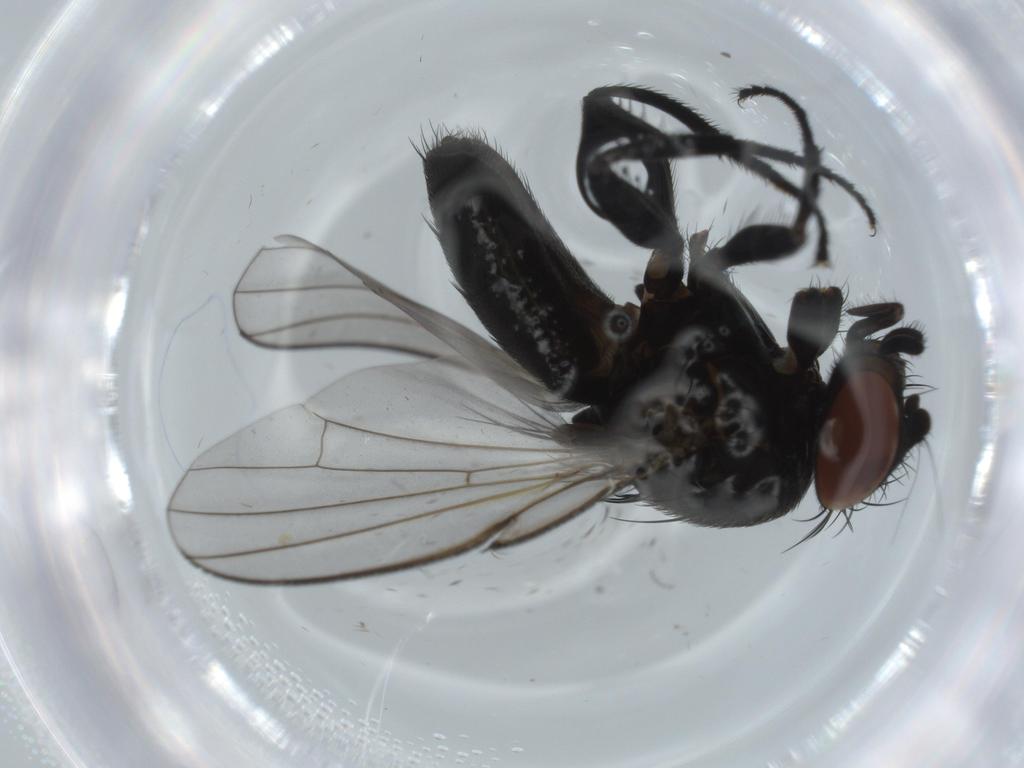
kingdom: Animalia
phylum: Arthropoda
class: Insecta
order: Diptera
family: Milichiidae
